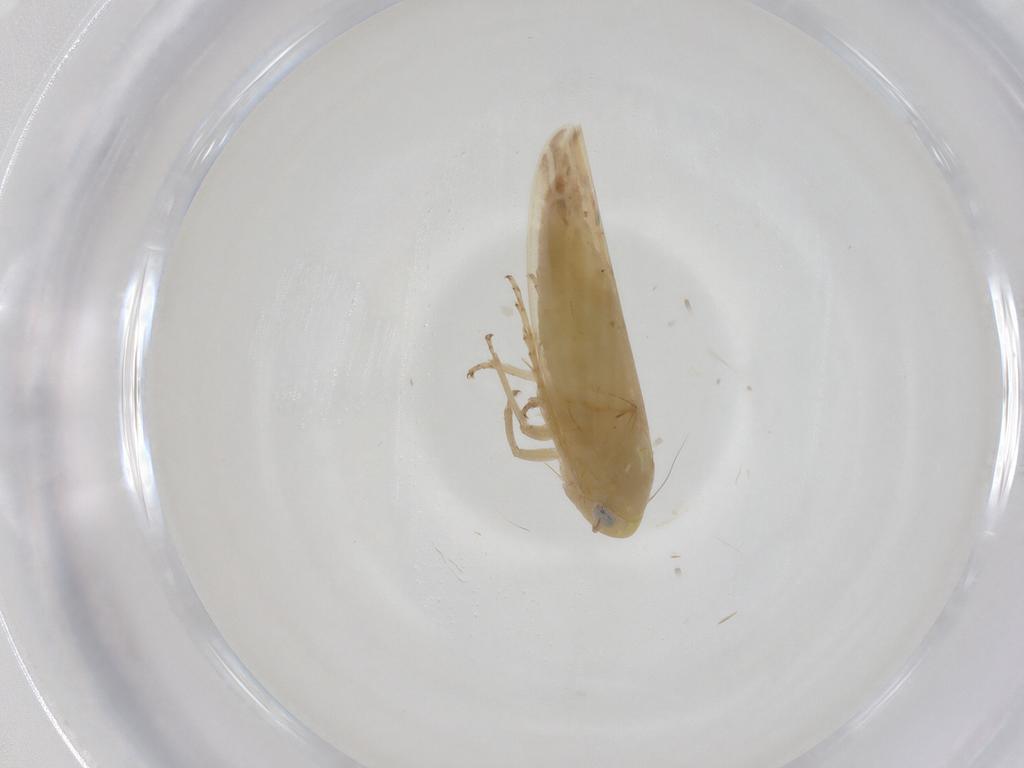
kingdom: Animalia
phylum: Arthropoda
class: Insecta
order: Hemiptera
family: Cicadellidae
